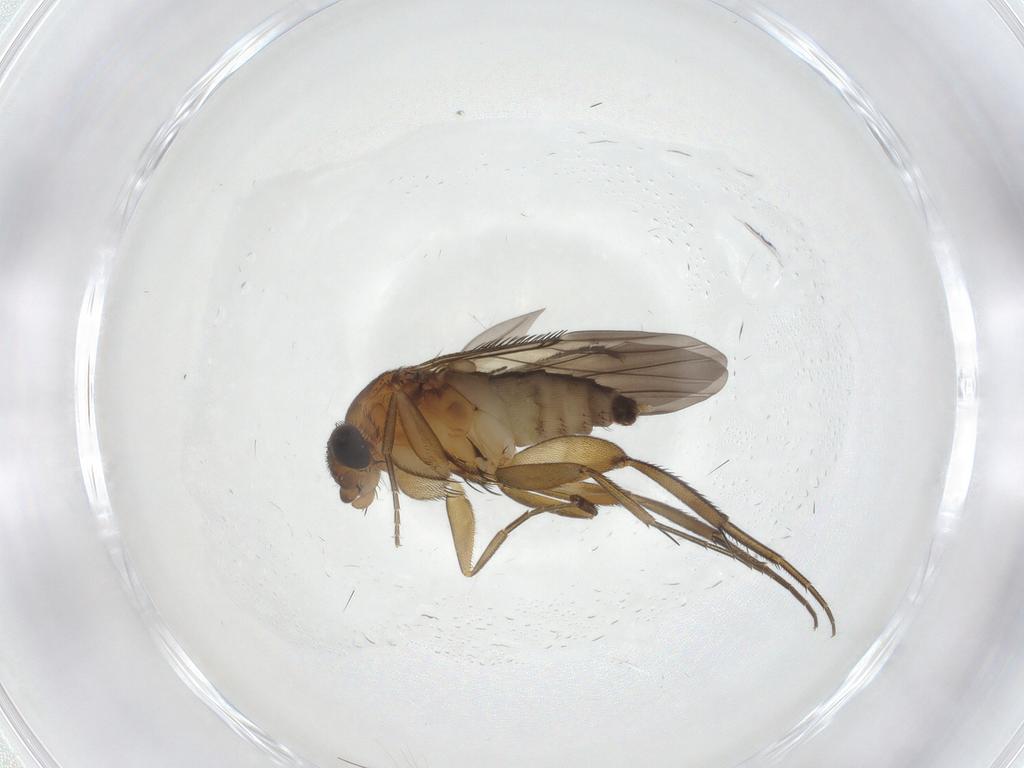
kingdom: Animalia
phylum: Arthropoda
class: Insecta
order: Diptera
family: Phoridae
